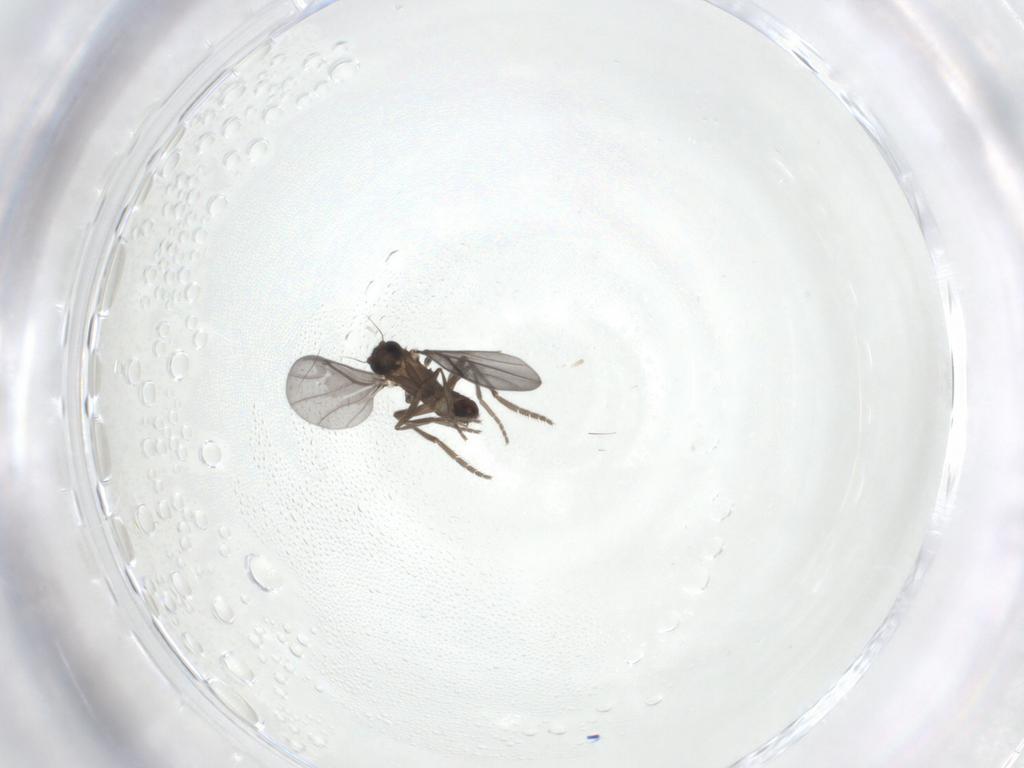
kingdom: Animalia
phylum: Arthropoda
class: Insecta
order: Diptera
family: Phoridae
